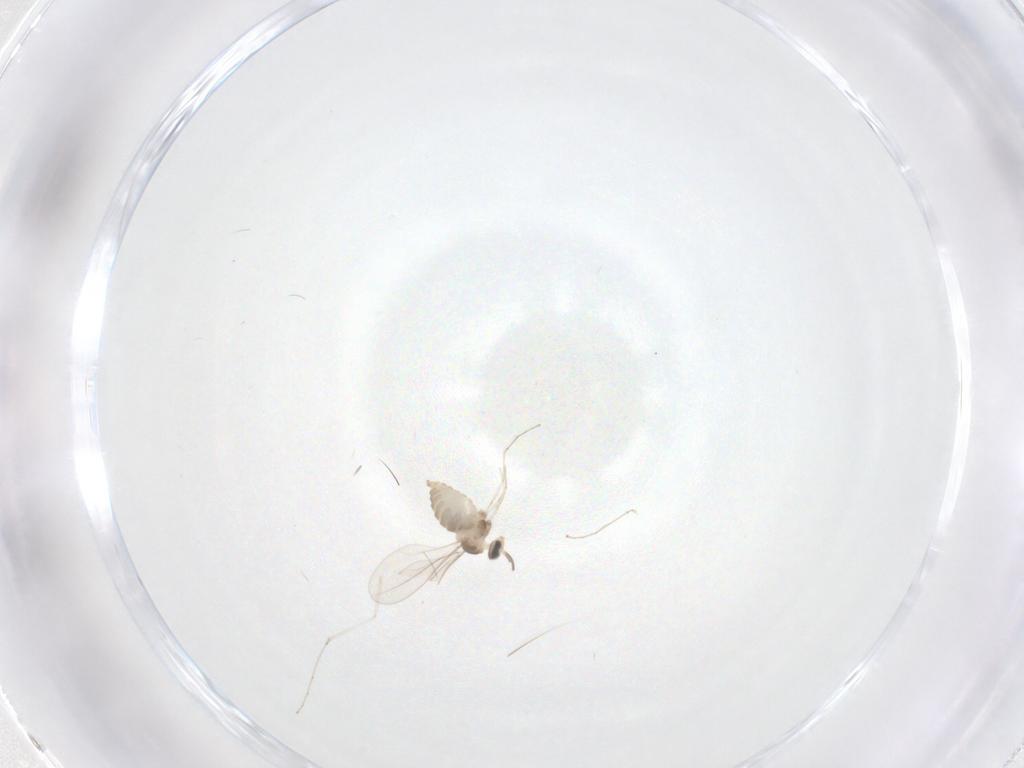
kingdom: Animalia
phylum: Arthropoda
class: Insecta
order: Diptera
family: Cecidomyiidae
